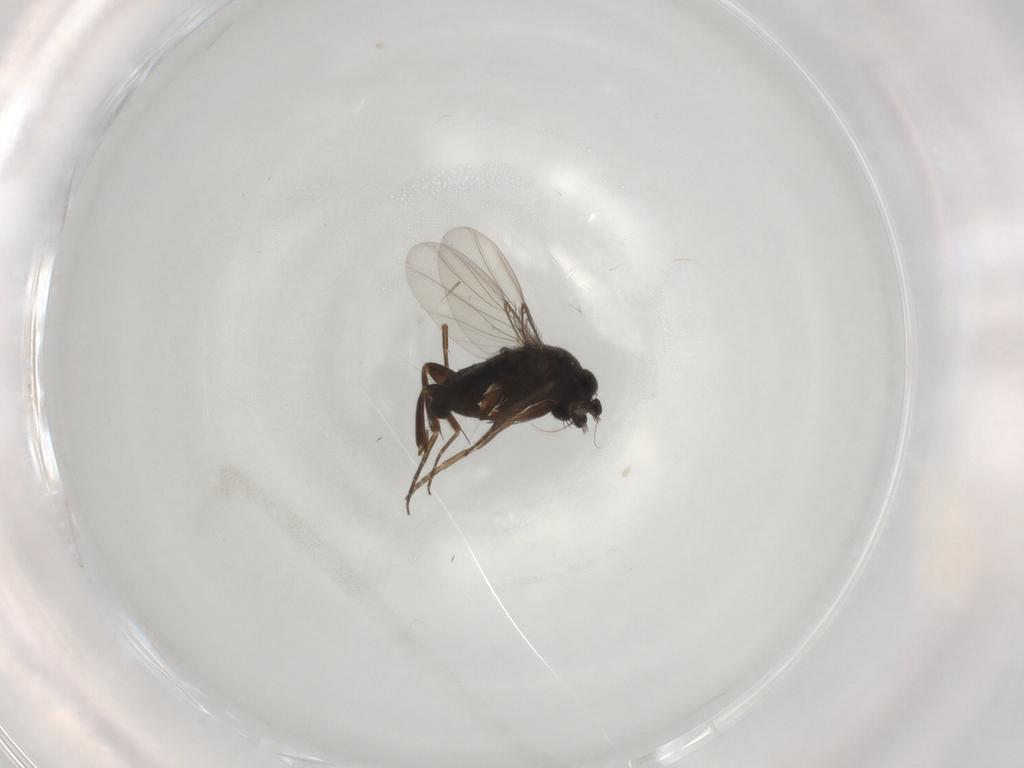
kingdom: Animalia
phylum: Arthropoda
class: Insecta
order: Diptera
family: Phoridae
